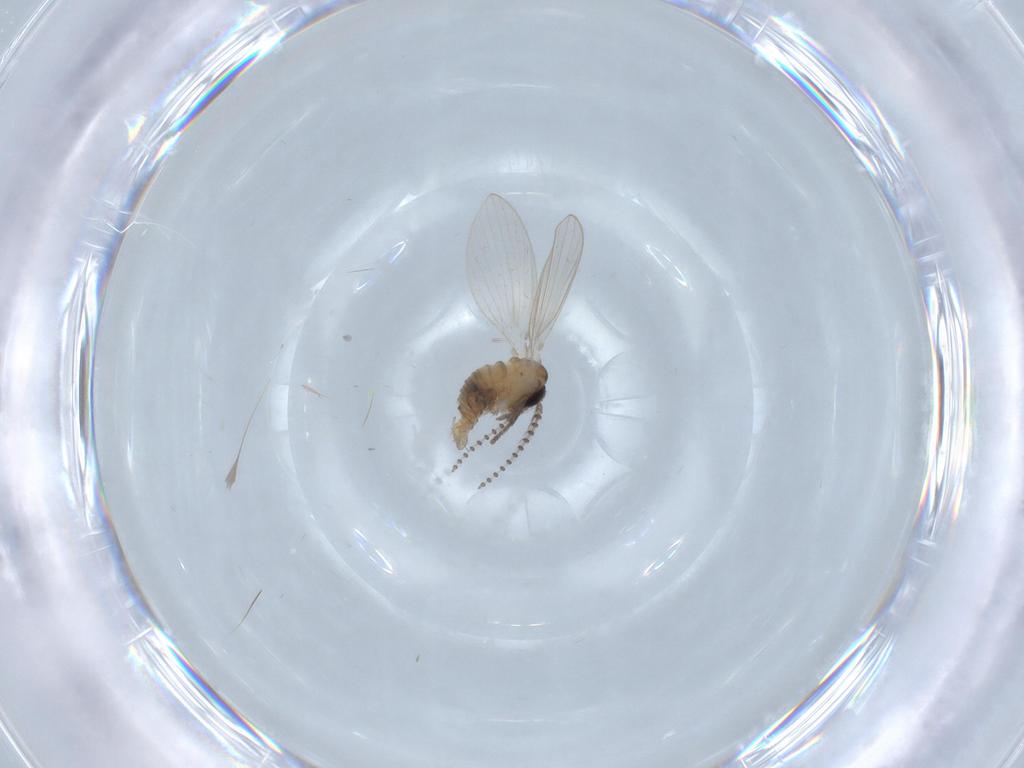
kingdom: Animalia
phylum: Arthropoda
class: Insecta
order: Diptera
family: Psychodidae
